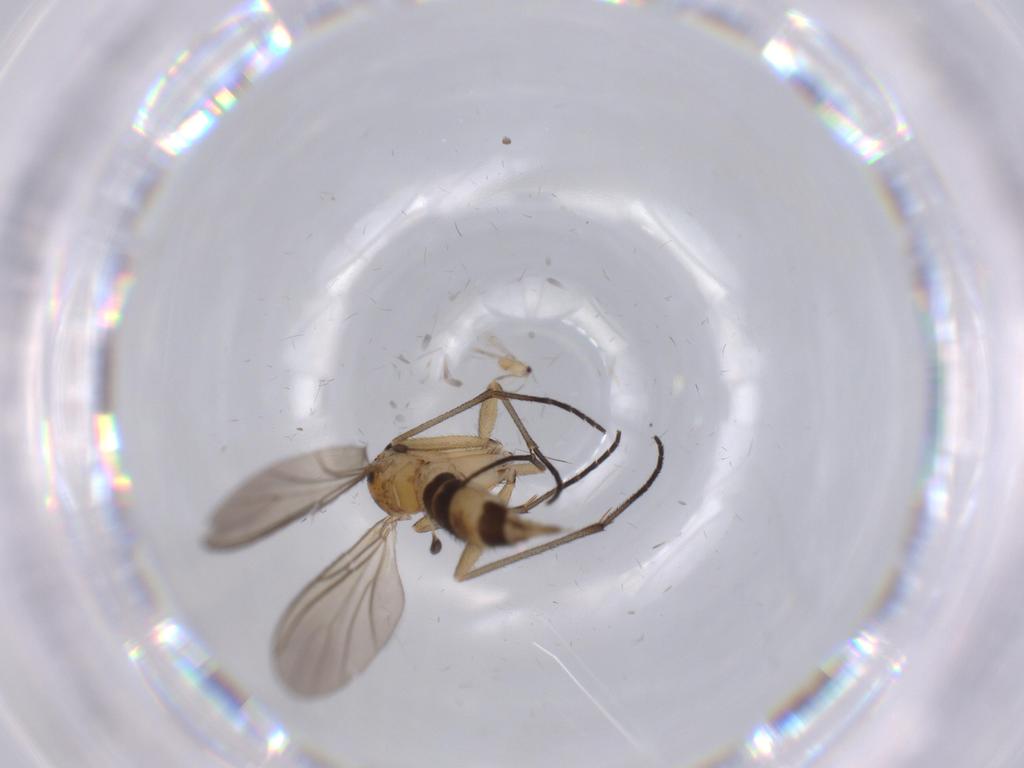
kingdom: Animalia
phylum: Arthropoda
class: Insecta
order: Diptera
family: Sciaridae
